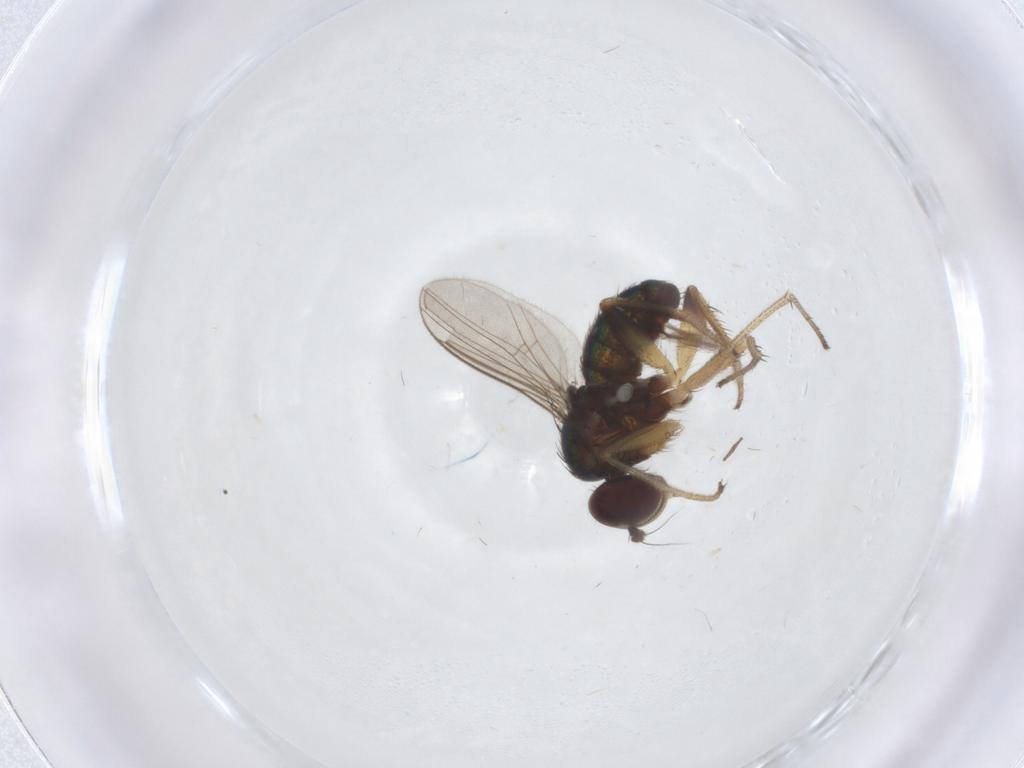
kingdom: Animalia
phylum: Arthropoda
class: Insecta
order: Diptera
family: Ceratopogonidae
